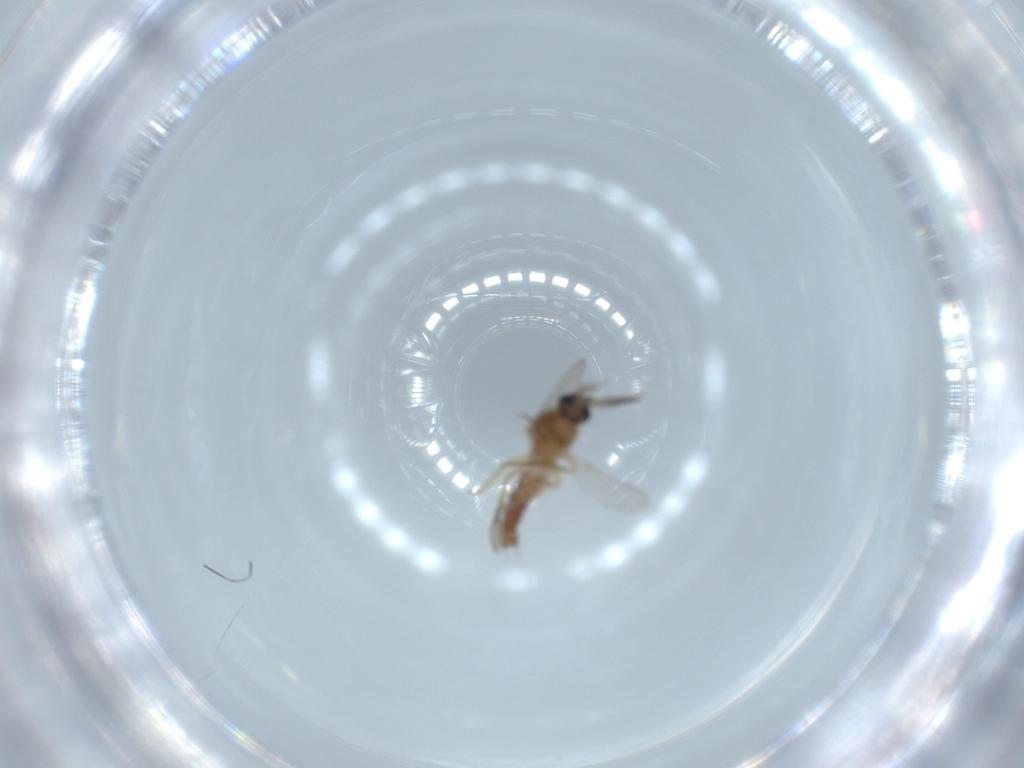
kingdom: Animalia
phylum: Arthropoda
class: Insecta
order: Diptera
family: Ceratopogonidae
